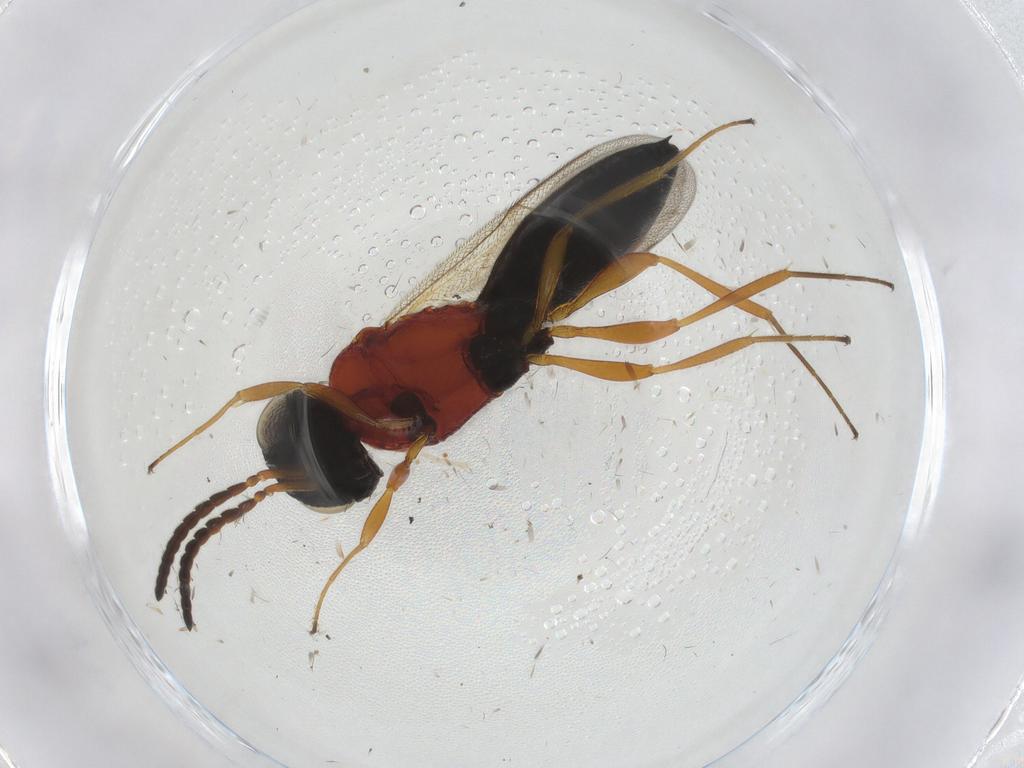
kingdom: Animalia
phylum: Arthropoda
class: Insecta
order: Hymenoptera
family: Scelionidae
